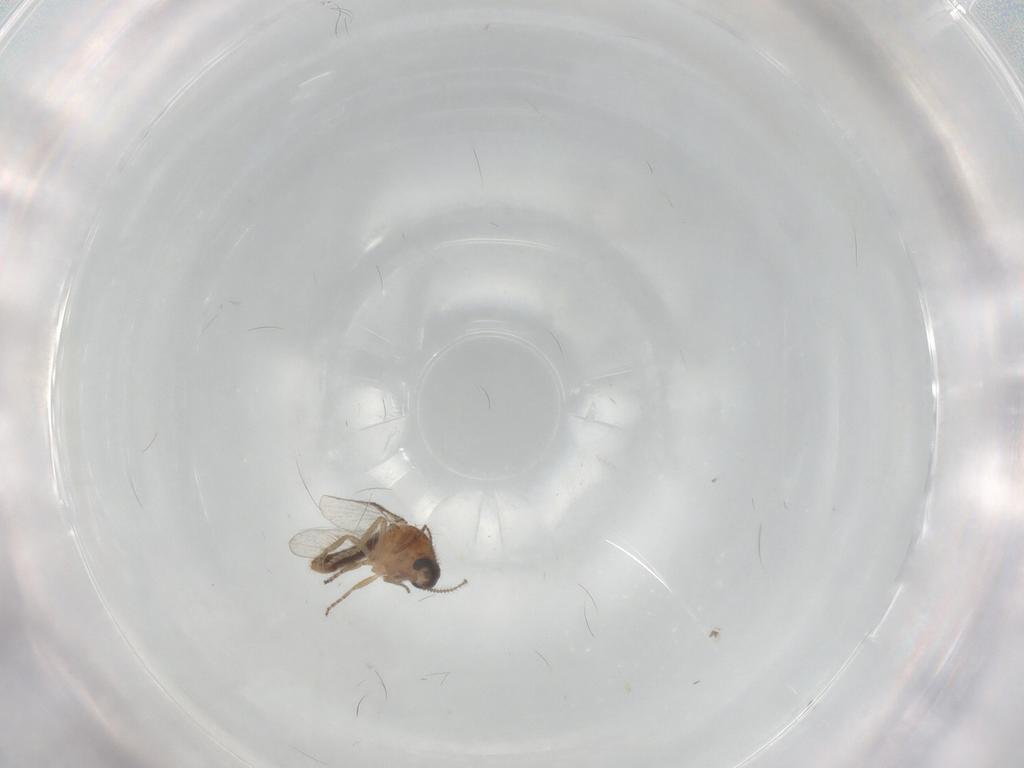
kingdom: Animalia
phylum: Arthropoda
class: Insecta
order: Diptera
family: Ceratopogonidae
